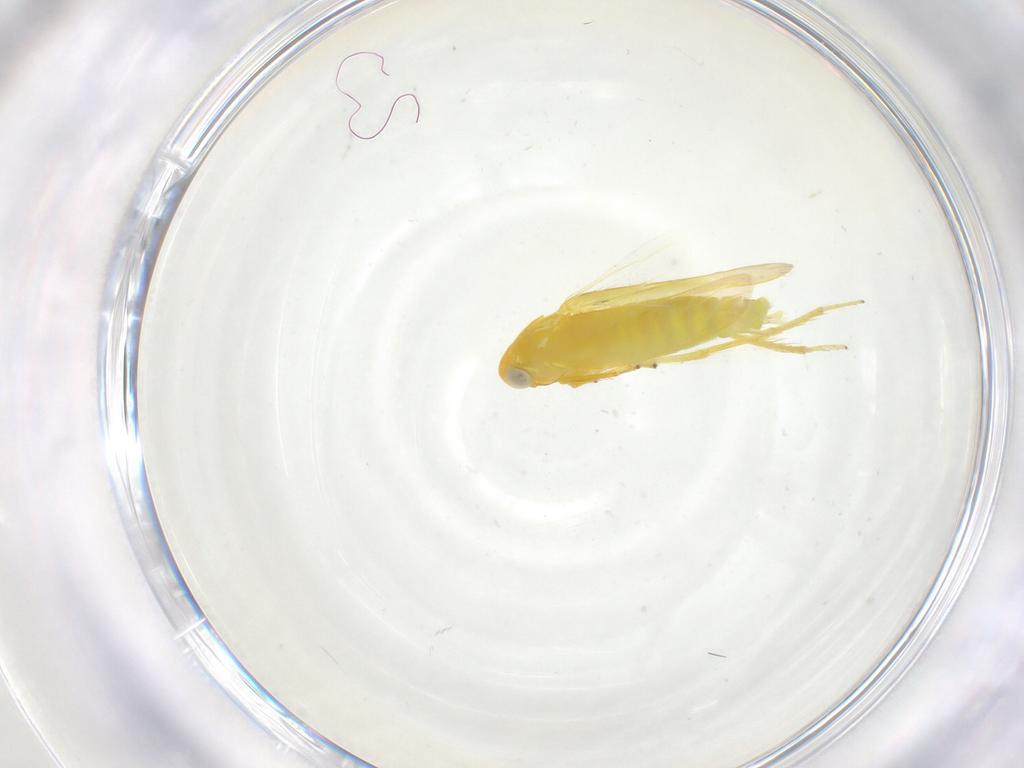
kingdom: Animalia
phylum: Arthropoda
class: Insecta
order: Hemiptera
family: Cicadellidae
